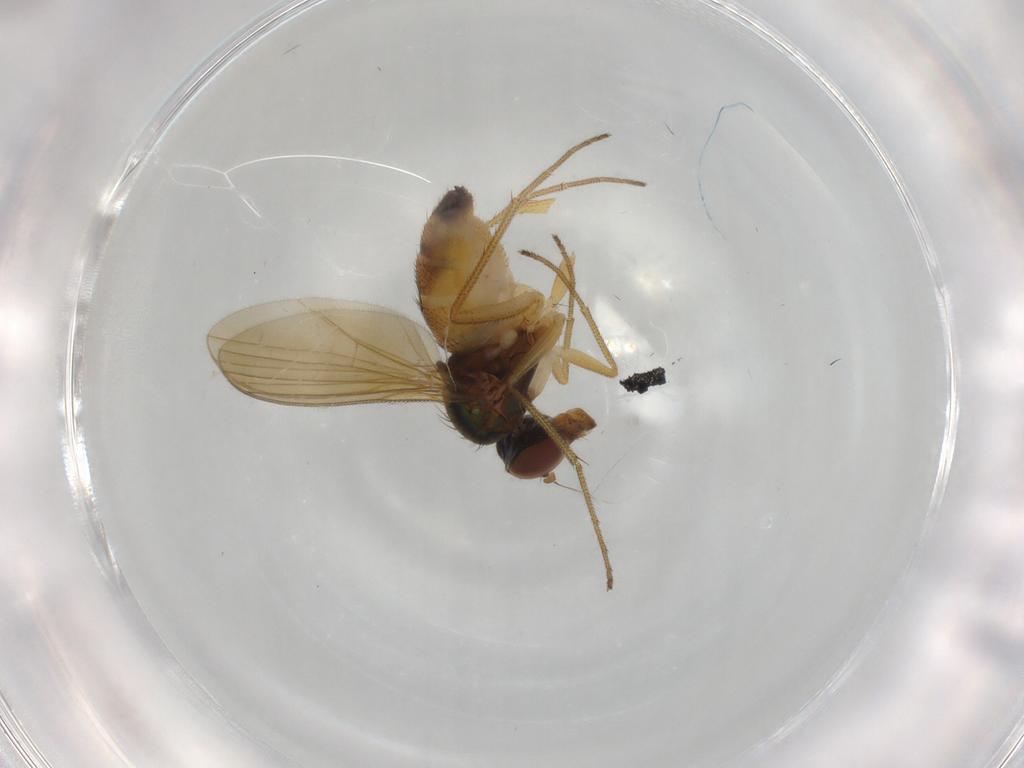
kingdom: Animalia
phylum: Arthropoda
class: Insecta
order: Diptera
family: Dolichopodidae
